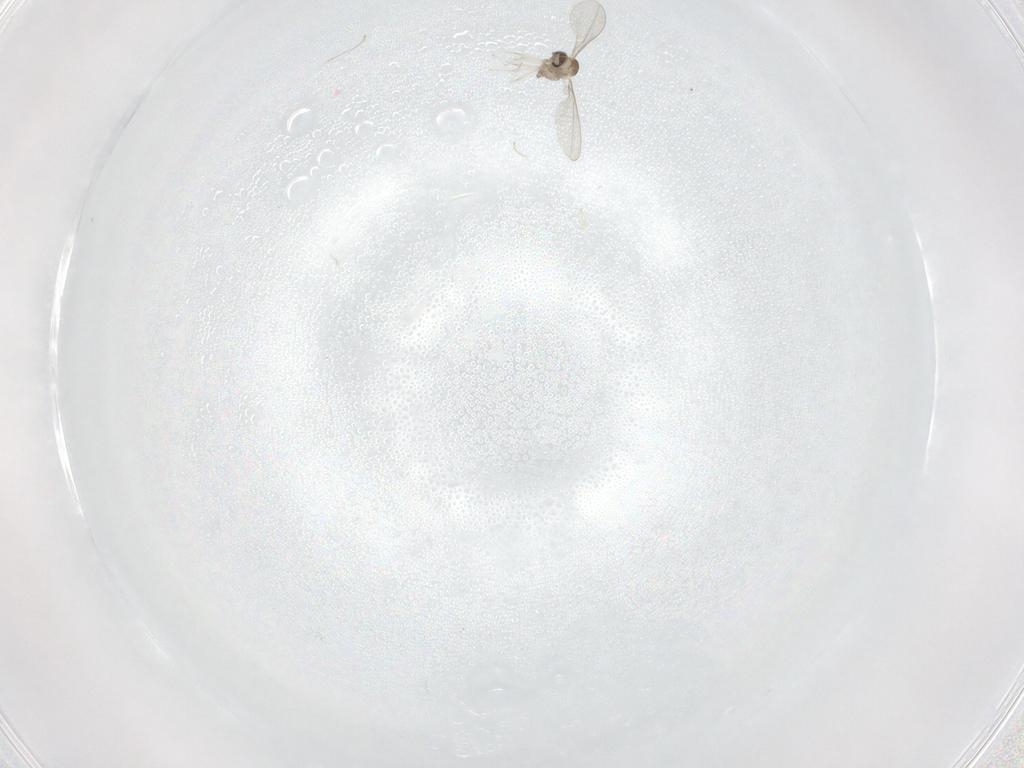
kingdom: Animalia
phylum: Arthropoda
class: Insecta
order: Diptera
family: Cecidomyiidae
